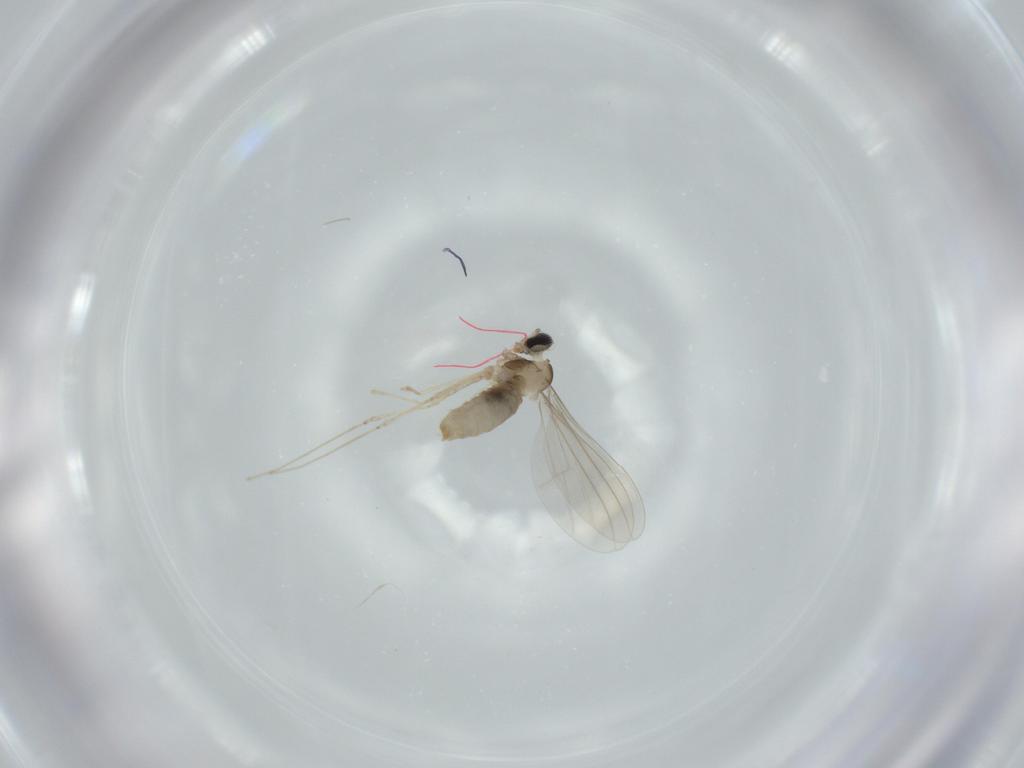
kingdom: Animalia
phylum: Arthropoda
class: Insecta
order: Diptera
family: Cecidomyiidae
